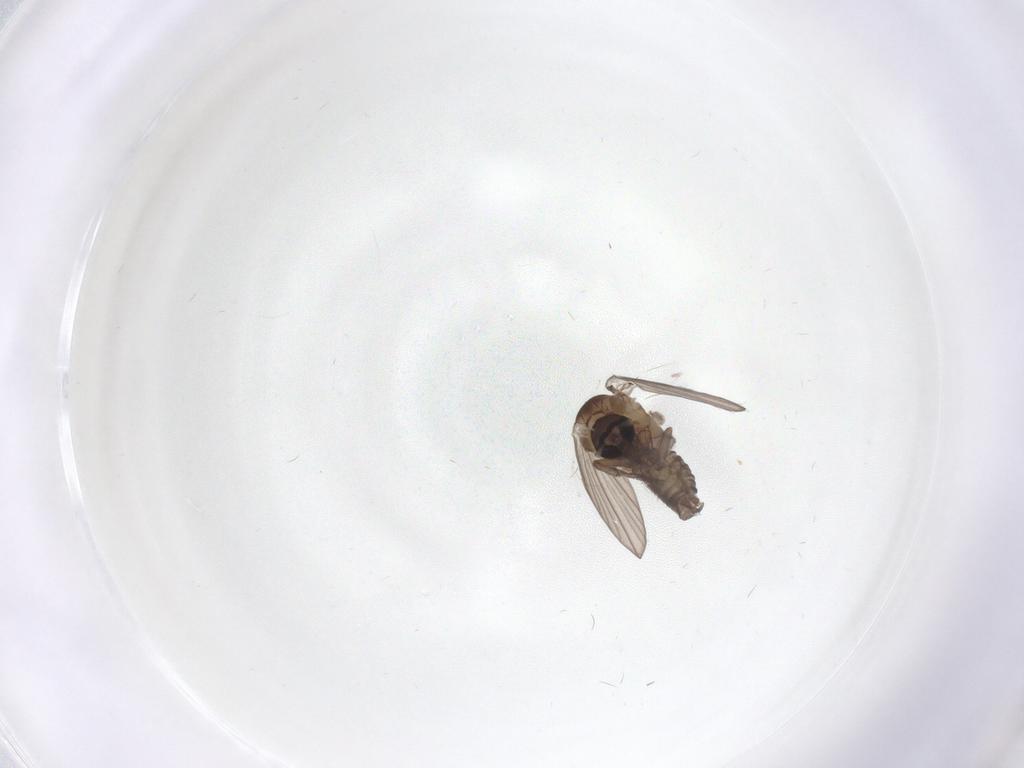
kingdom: Animalia
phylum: Arthropoda
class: Insecta
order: Diptera
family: Psychodidae
